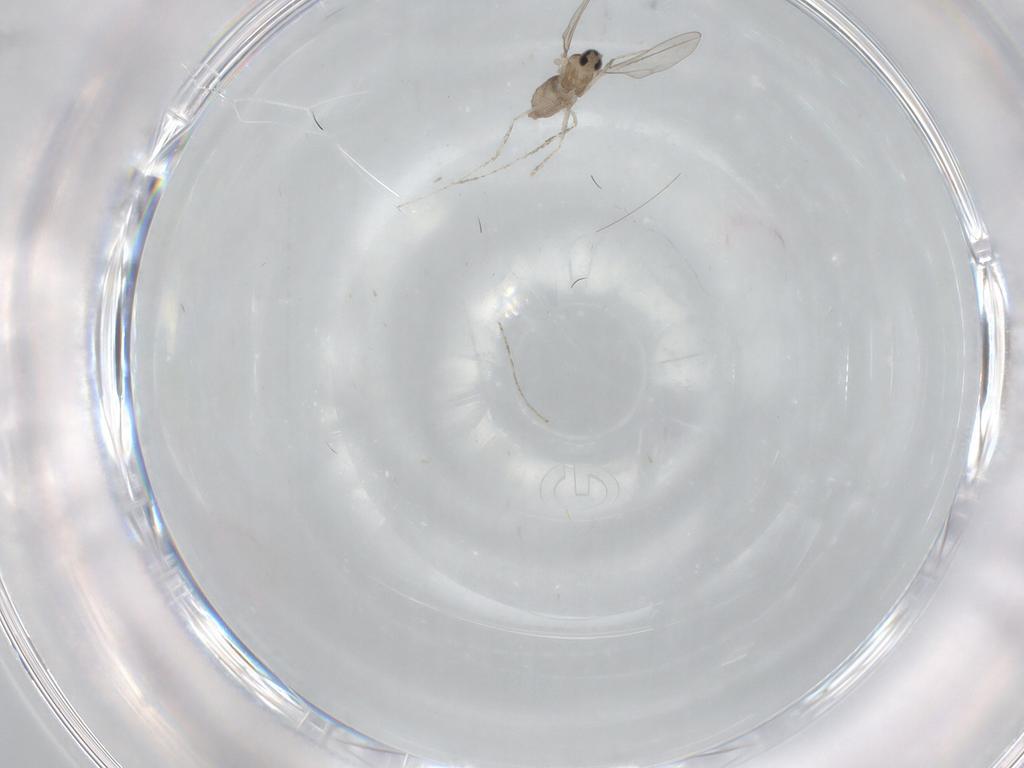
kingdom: Animalia
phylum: Arthropoda
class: Insecta
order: Diptera
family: Cecidomyiidae
